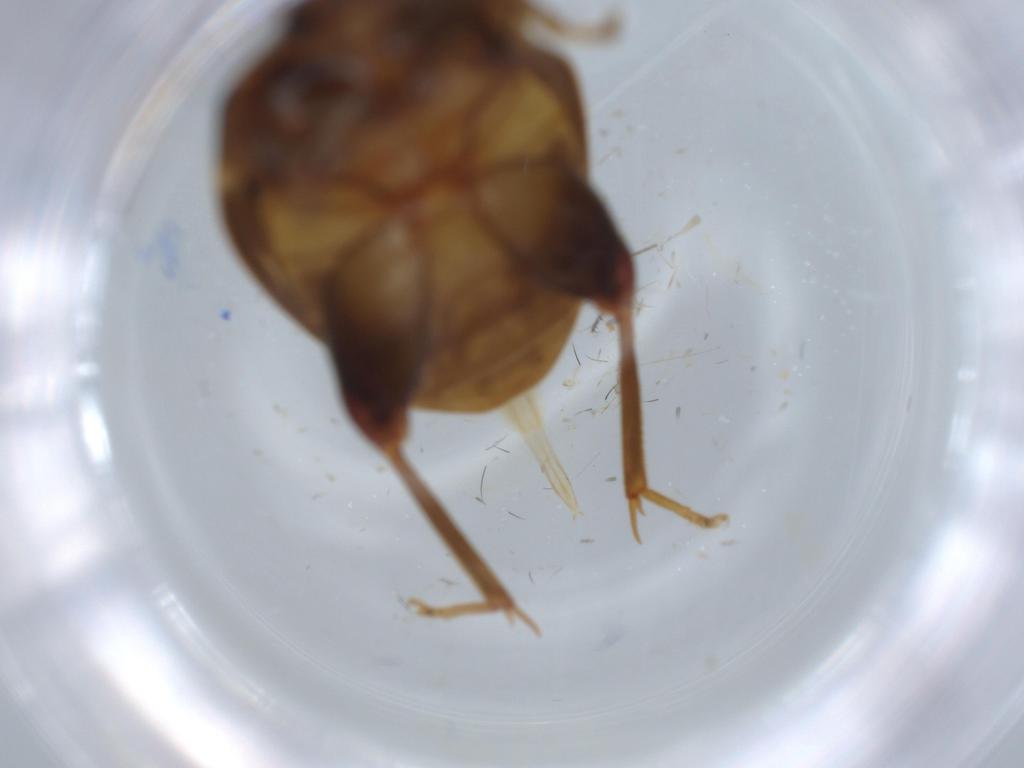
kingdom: Animalia
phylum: Arthropoda
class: Insecta
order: Coleoptera
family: Scirtidae
